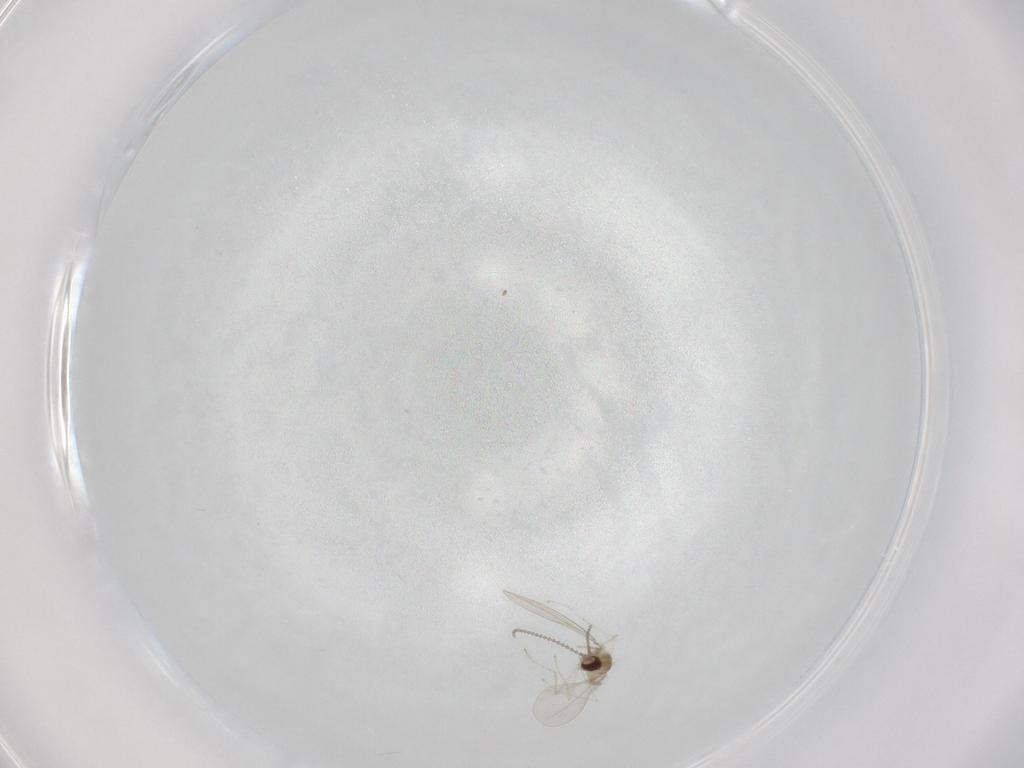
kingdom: Animalia
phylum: Arthropoda
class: Insecta
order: Diptera
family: Cecidomyiidae
